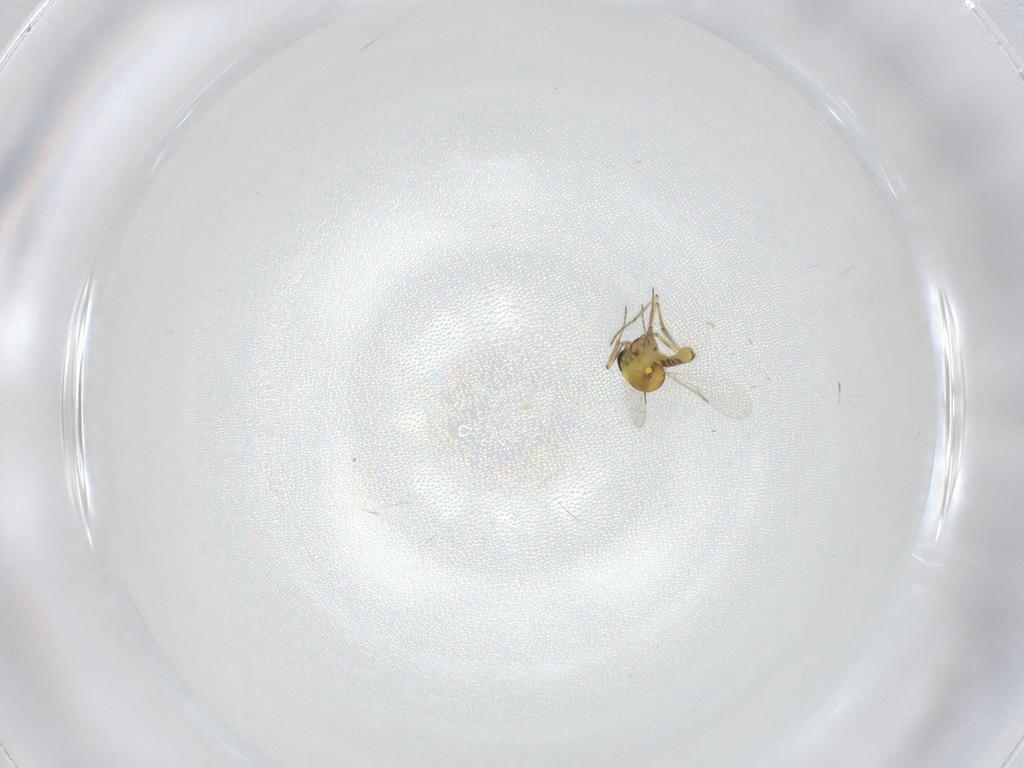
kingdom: Animalia
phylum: Arthropoda
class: Insecta
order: Diptera
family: Ceratopogonidae
